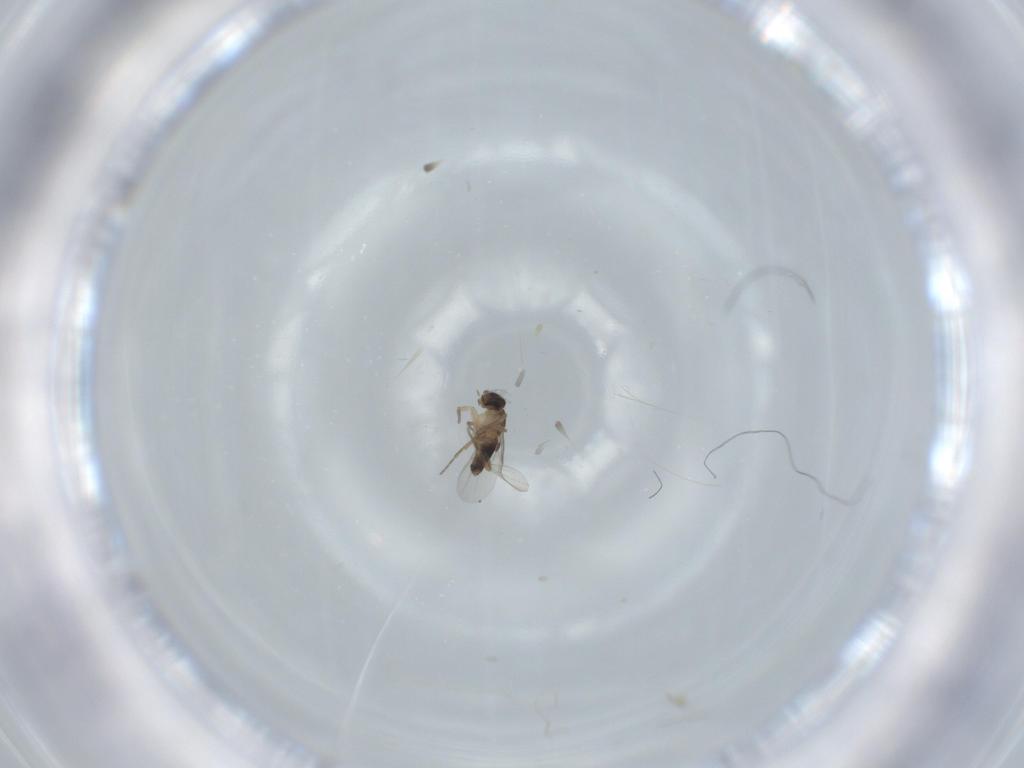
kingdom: Animalia
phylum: Arthropoda
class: Insecta
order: Diptera
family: Phoridae
